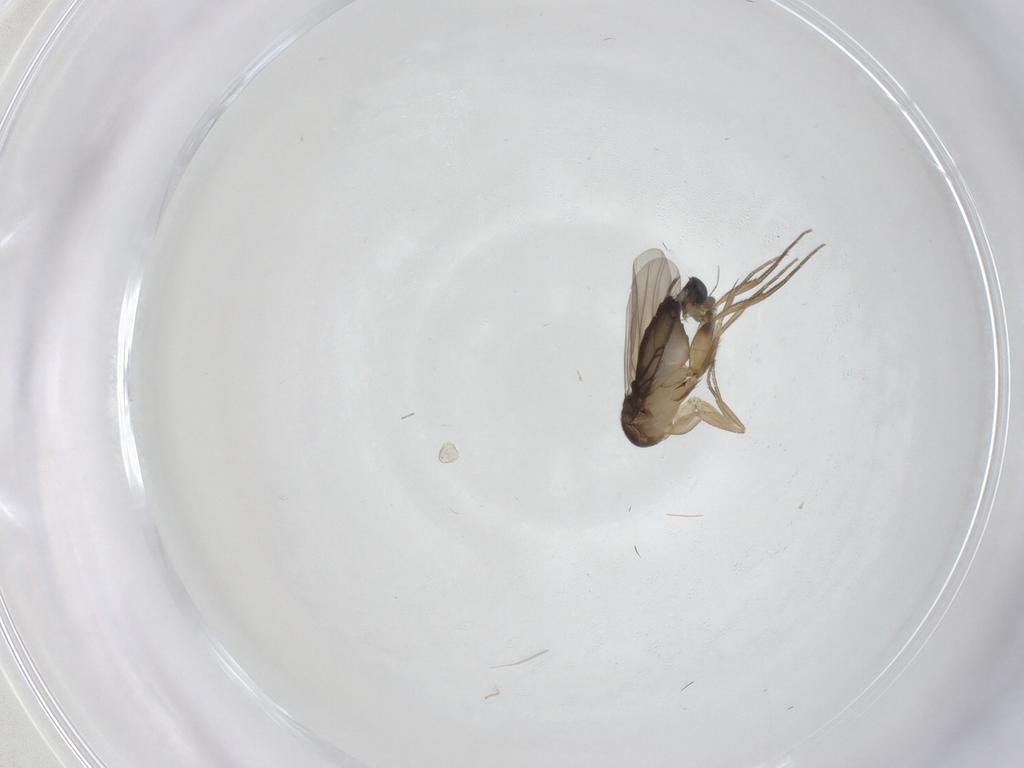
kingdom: Animalia
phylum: Arthropoda
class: Insecta
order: Diptera
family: Phoridae
